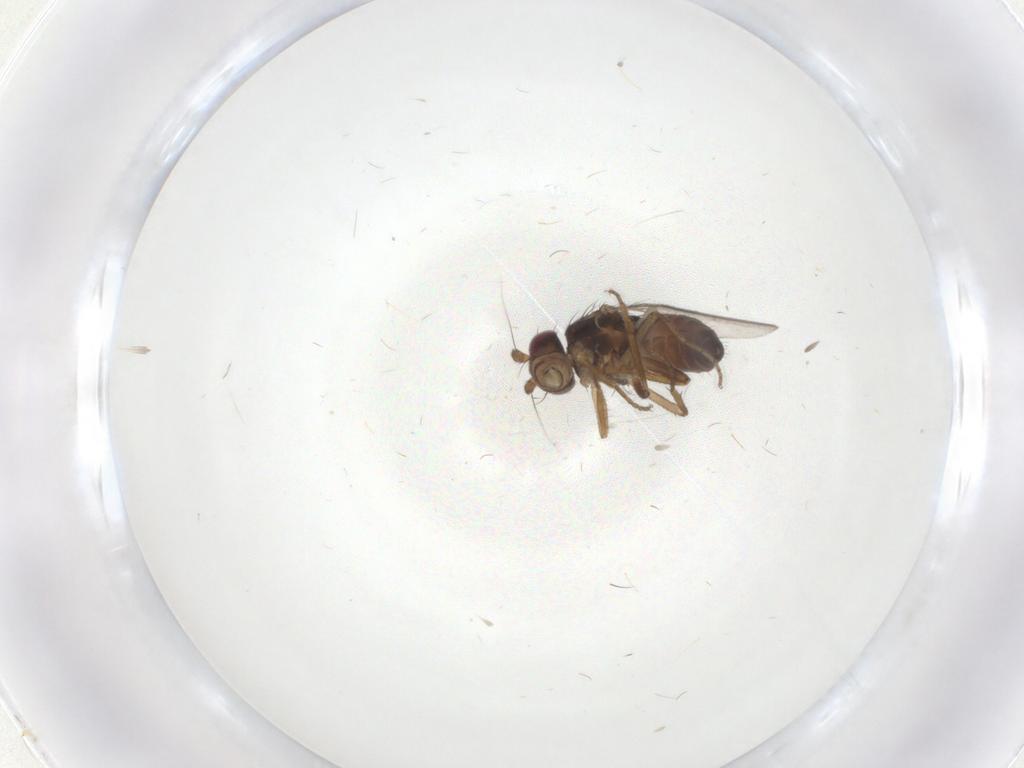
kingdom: Animalia
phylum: Arthropoda
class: Insecta
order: Diptera
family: Sphaeroceridae
